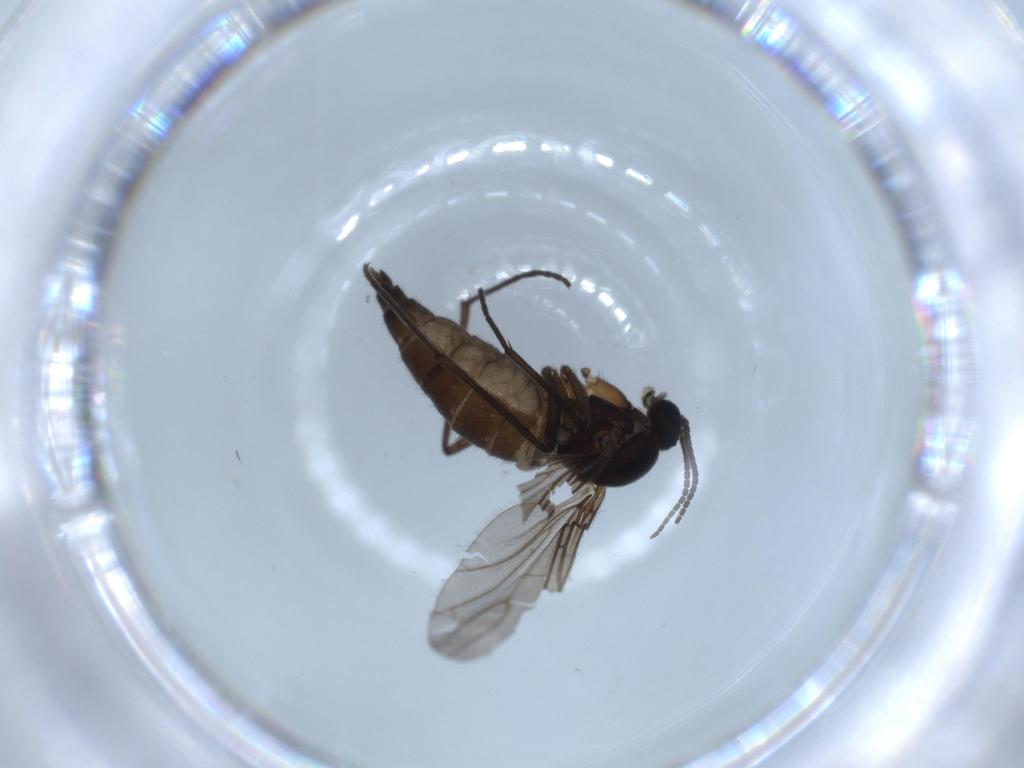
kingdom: Animalia
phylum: Arthropoda
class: Insecta
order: Diptera
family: Sciaridae
